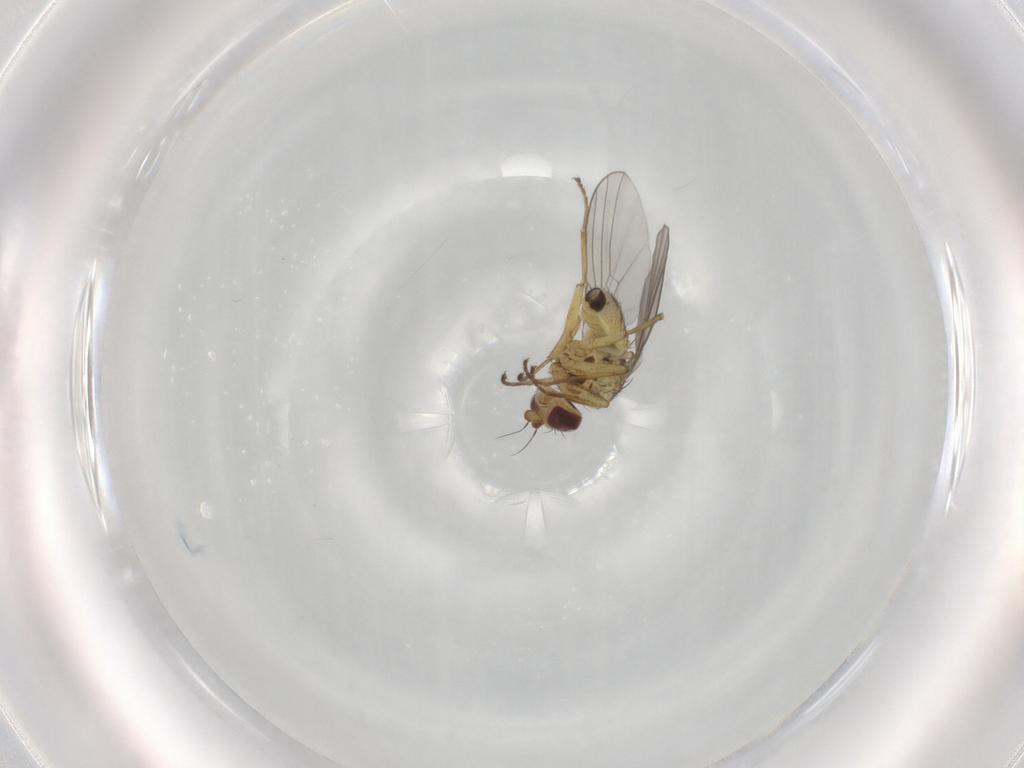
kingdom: Animalia
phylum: Arthropoda
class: Insecta
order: Diptera
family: Agromyzidae
